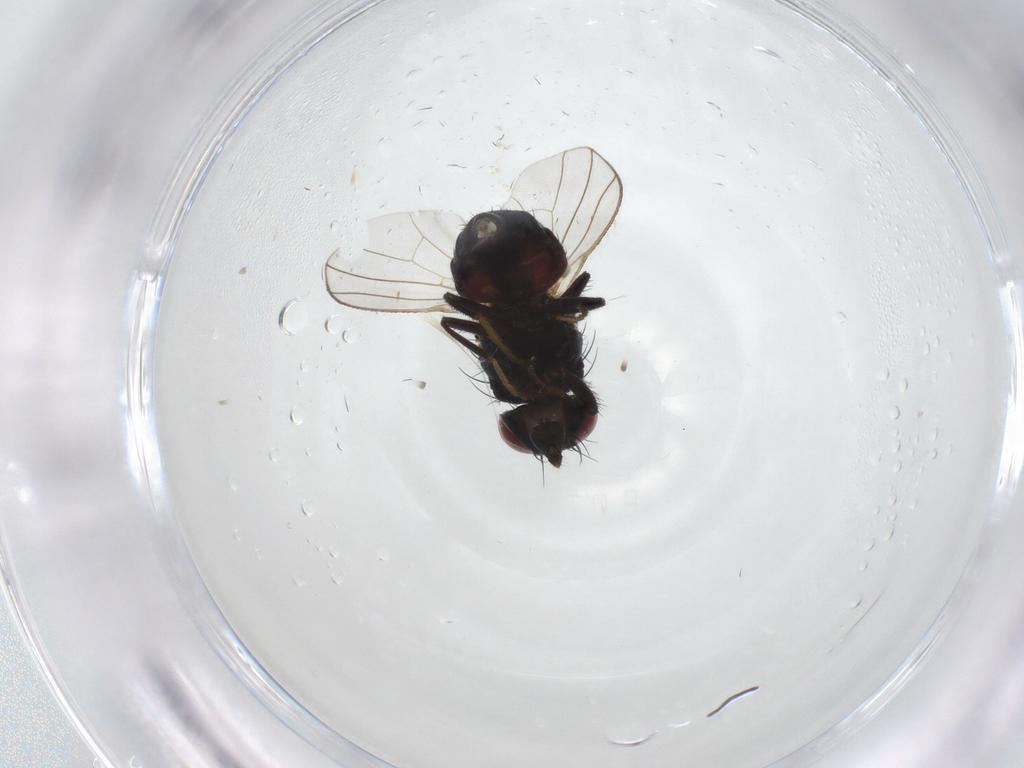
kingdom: Animalia
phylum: Arthropoda
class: Insecta
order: Diptera
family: Carnidae
